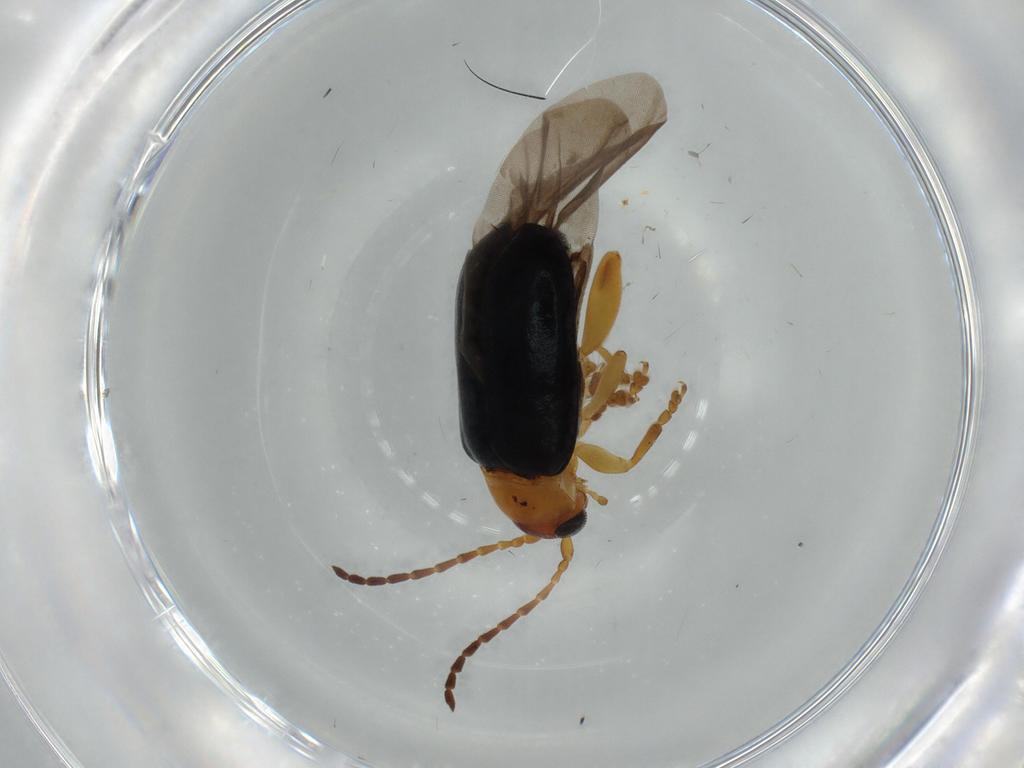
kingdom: Animalia
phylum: Arthropoda
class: Insecta
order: Coleoptera
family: Chrysomelidae
